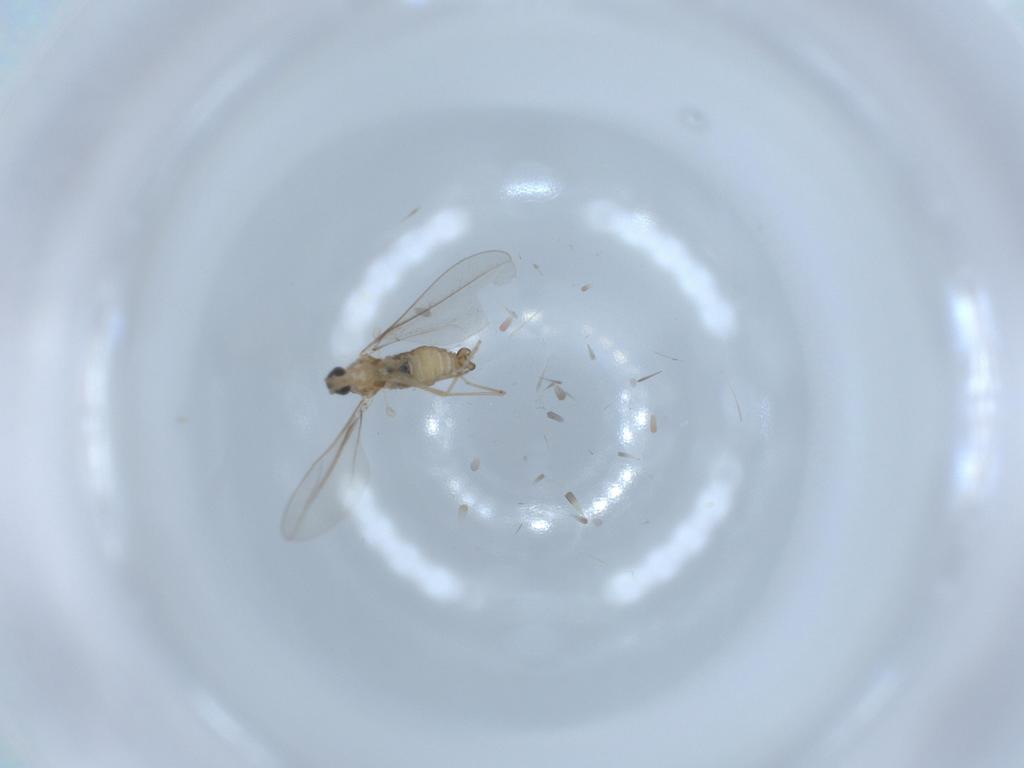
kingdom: Animalia
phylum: Arthropoda
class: Insecta
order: Diptera
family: Cecidomyiidae
